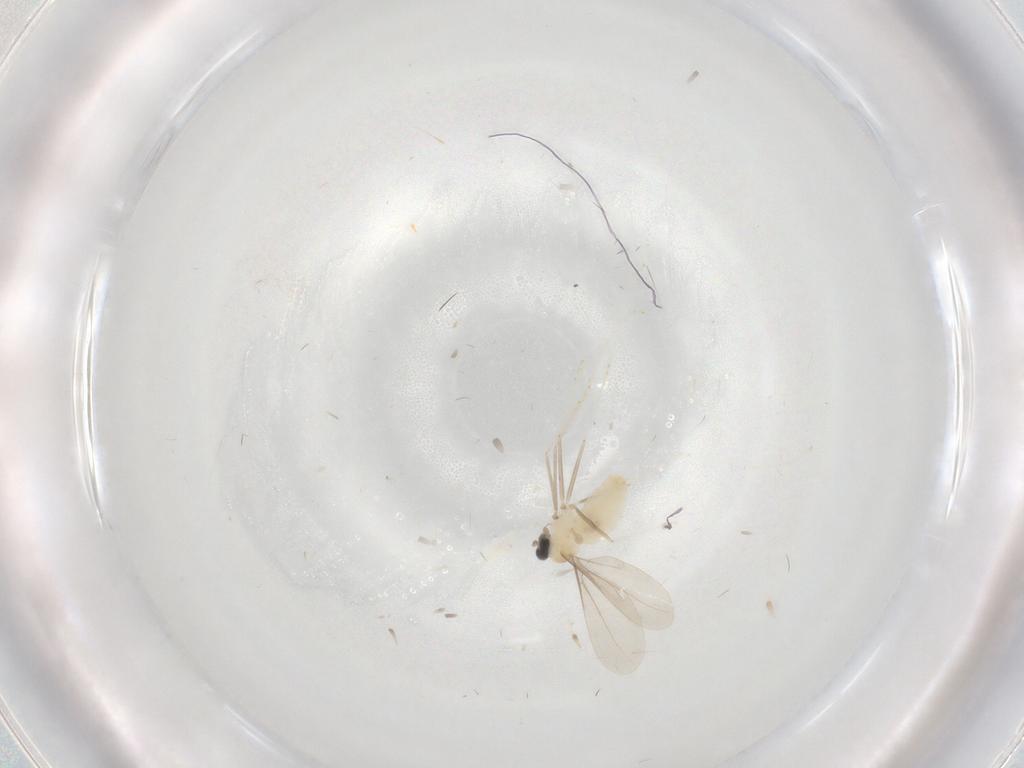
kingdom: Animalia
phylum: Arthropoda
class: Insecta
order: Diptera
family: Cecidomyiidae
